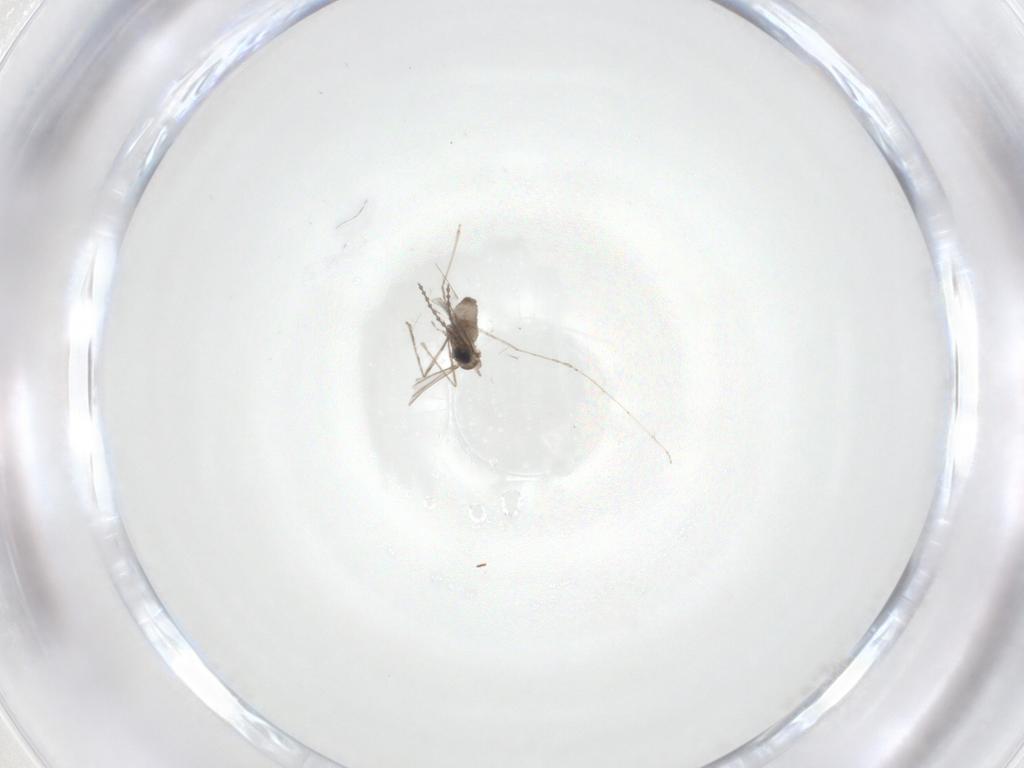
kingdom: Animalia
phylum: Arthropoda
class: Insecta
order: Diptera
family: Cecidomyiidae
